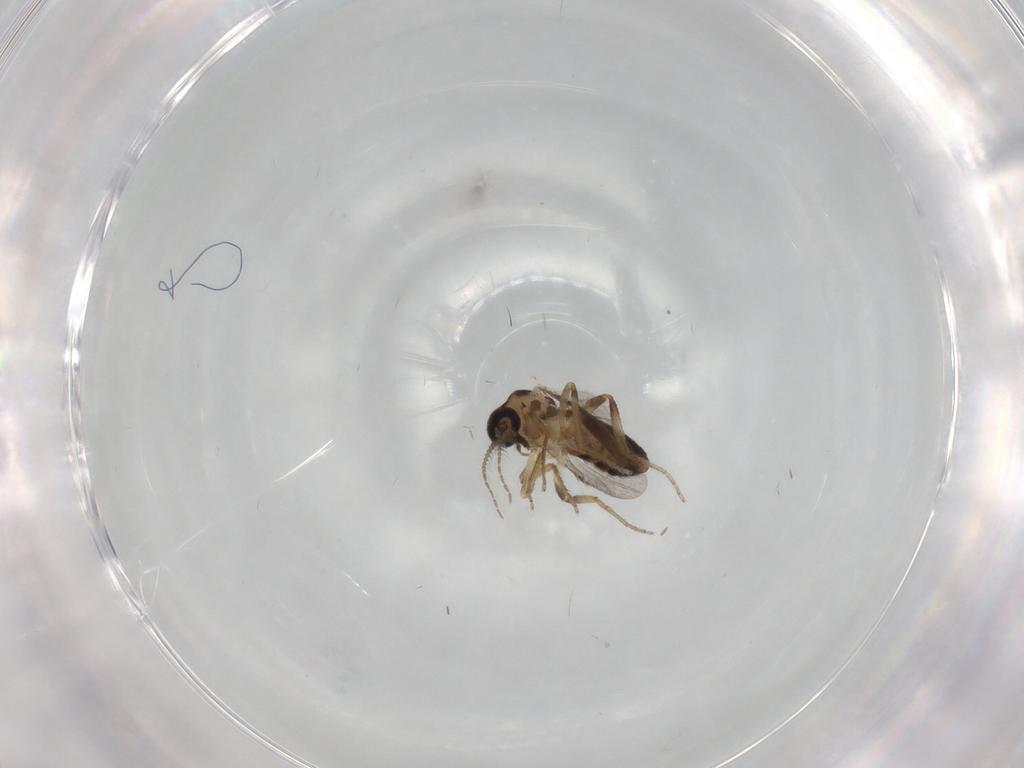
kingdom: Animalia
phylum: Arthropoda
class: Insecta
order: Diptera
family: Ceratopogonidae
